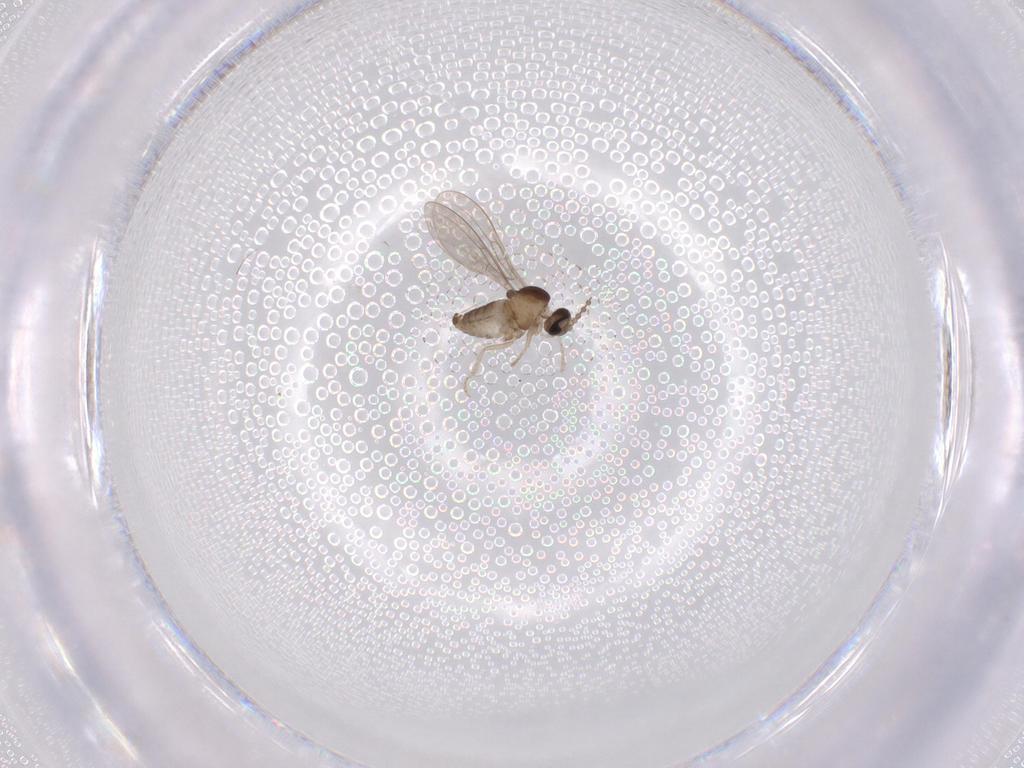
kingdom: Animalia
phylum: Arthropoda
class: Insecta
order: Diptera
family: Cecidomyiidae
